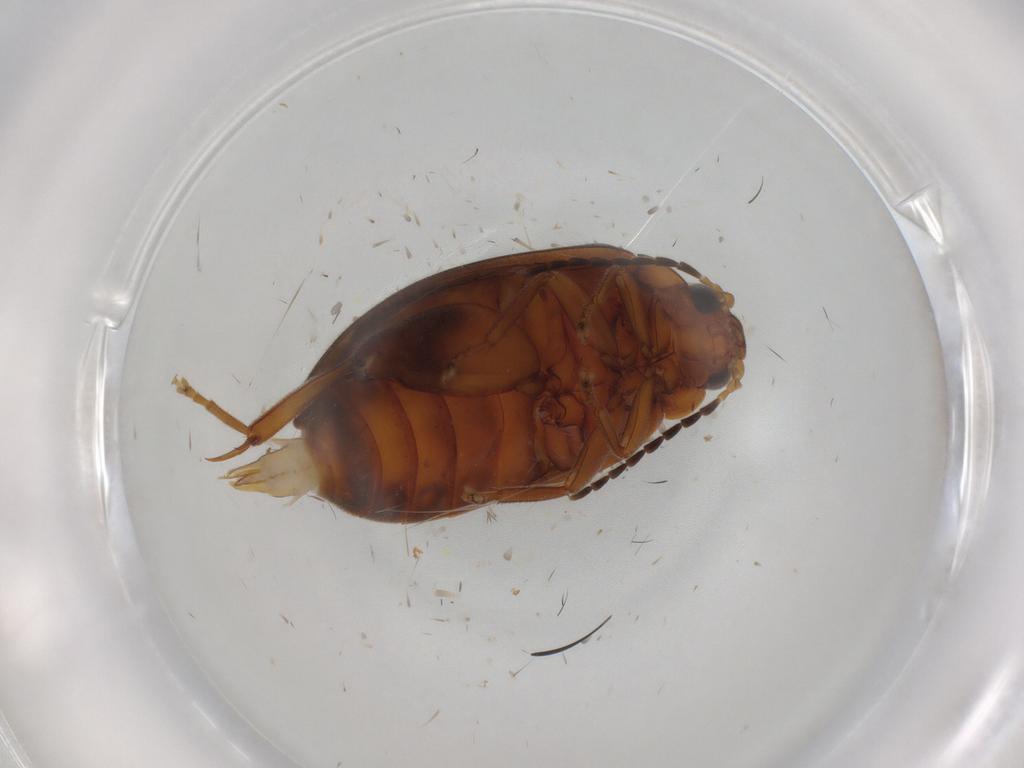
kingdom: Animalia
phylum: Arthropoda
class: Insecta
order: Coleoptera
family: Scirtidae
